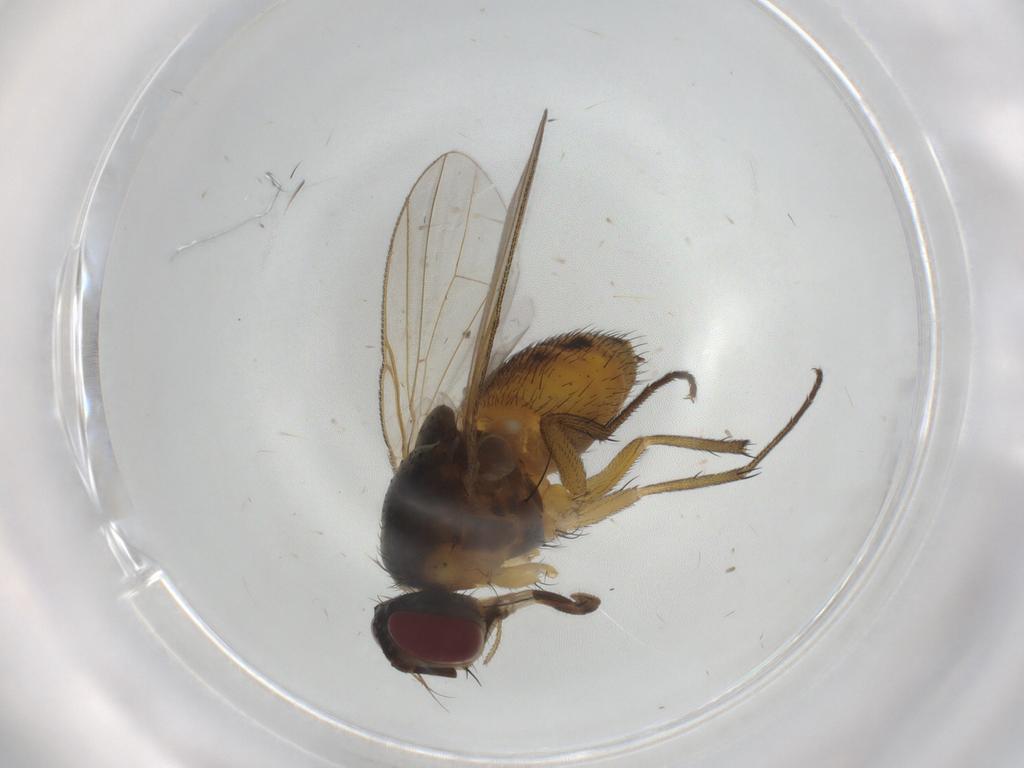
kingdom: Animalia
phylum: Arthropoda
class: Insecta
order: Diptera
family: Muscidae
